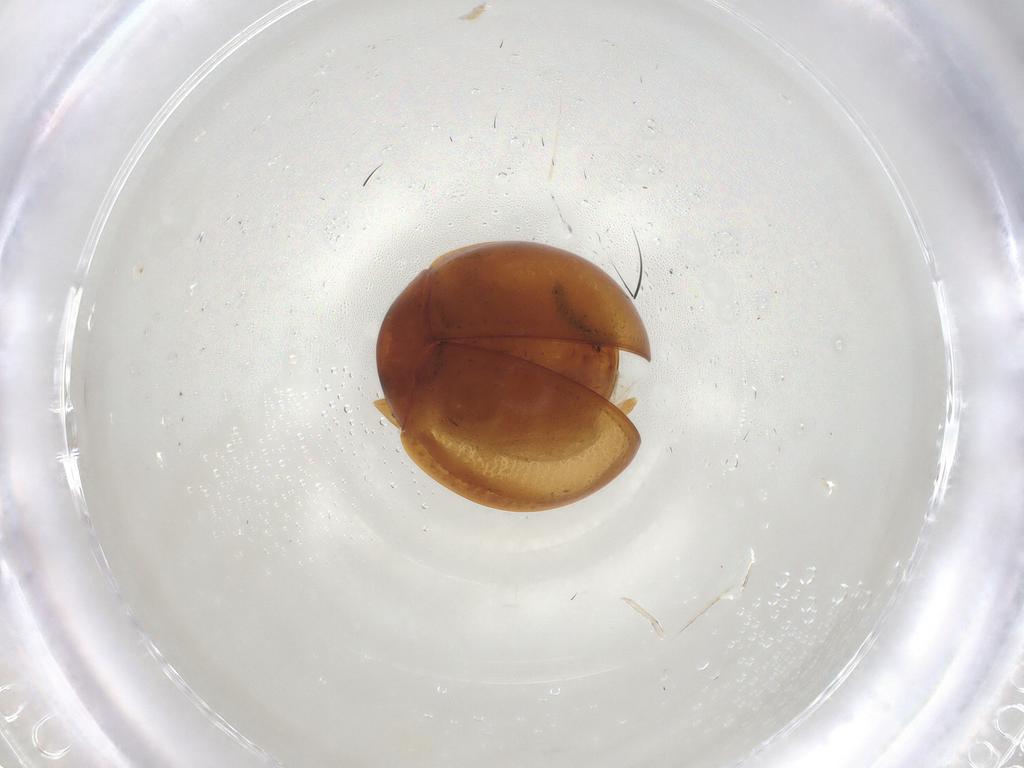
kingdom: Animalia
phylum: Arthropoda
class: Insecta
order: Coleoptera
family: Coccinellidae
